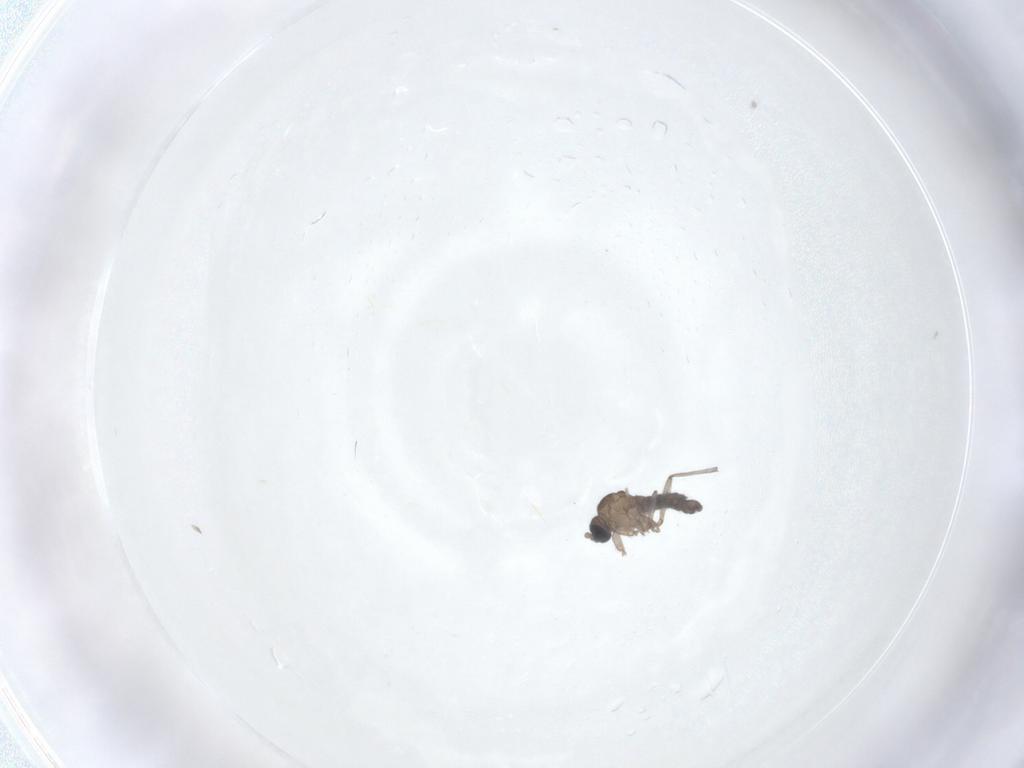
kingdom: Animalia
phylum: Arthropoda
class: Insecta
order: Diptera
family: Sciaridae
